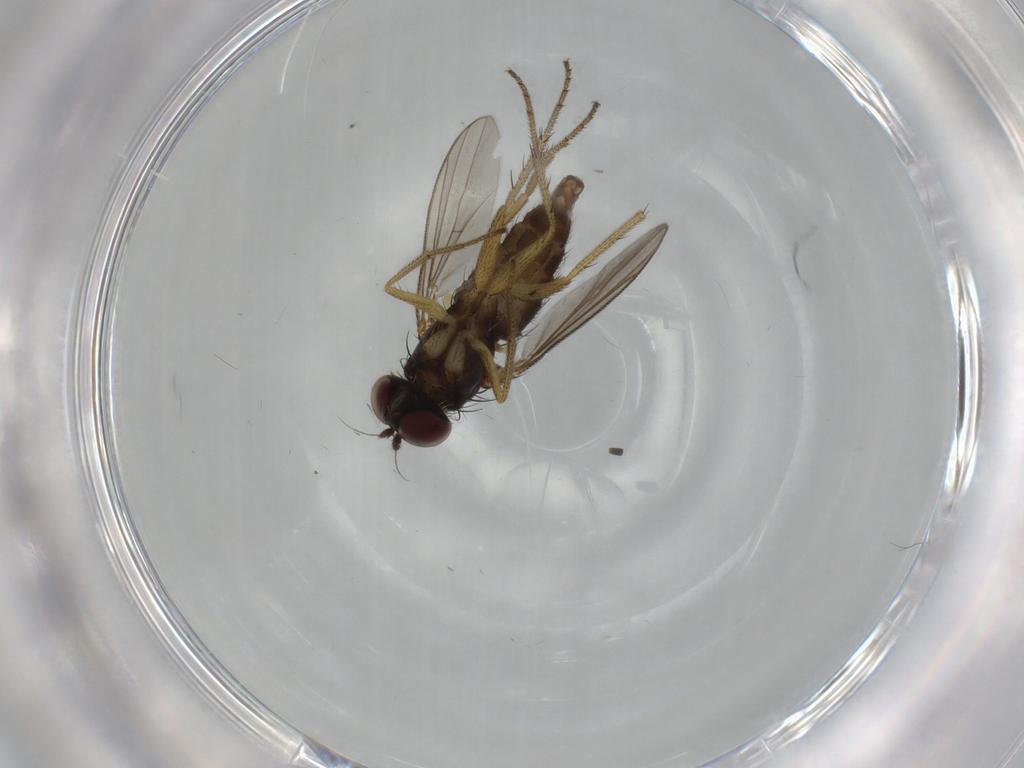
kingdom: Animalia
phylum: Arthropoda
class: Insecta
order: Diptera
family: Dolichopodidae
